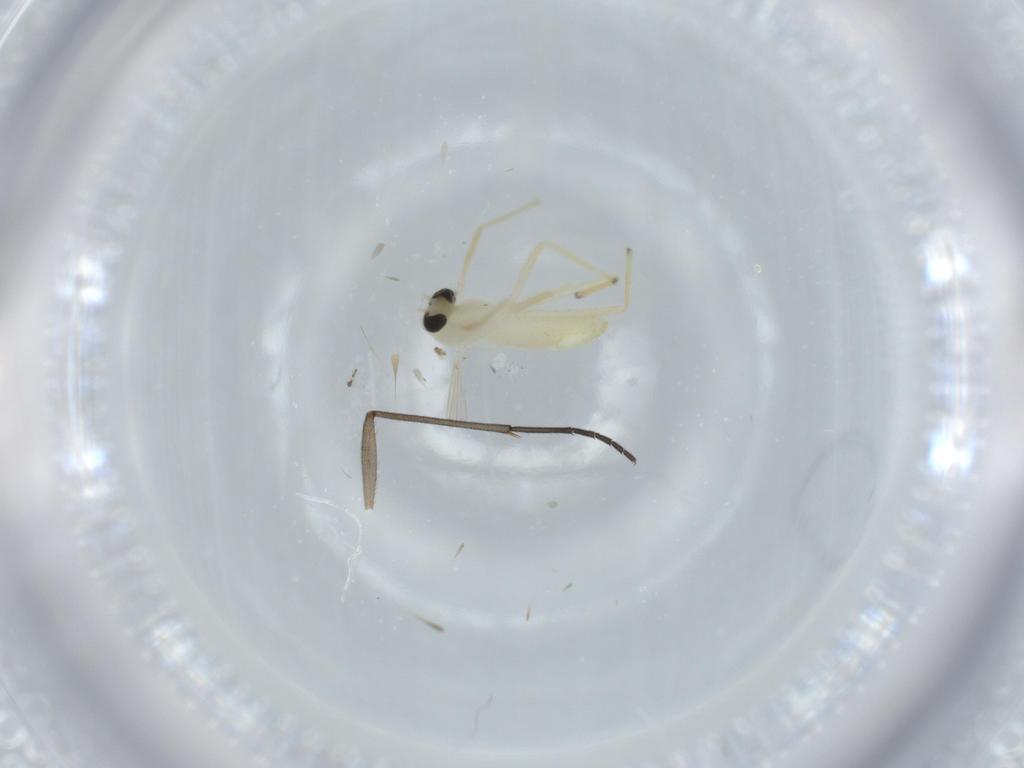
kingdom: Animalia
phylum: Arthropoda
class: Insecta
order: Diptera
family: Chironomidae
